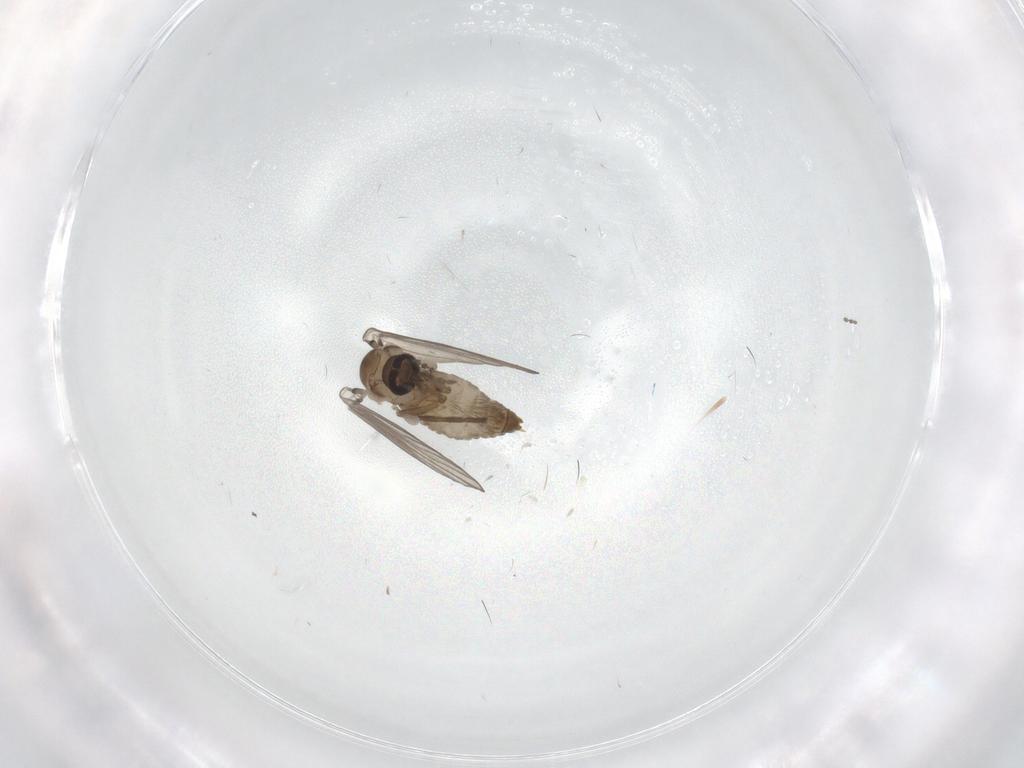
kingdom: Animalia
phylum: Arthropoda
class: Insecta
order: Diptera
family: Psychodidae
